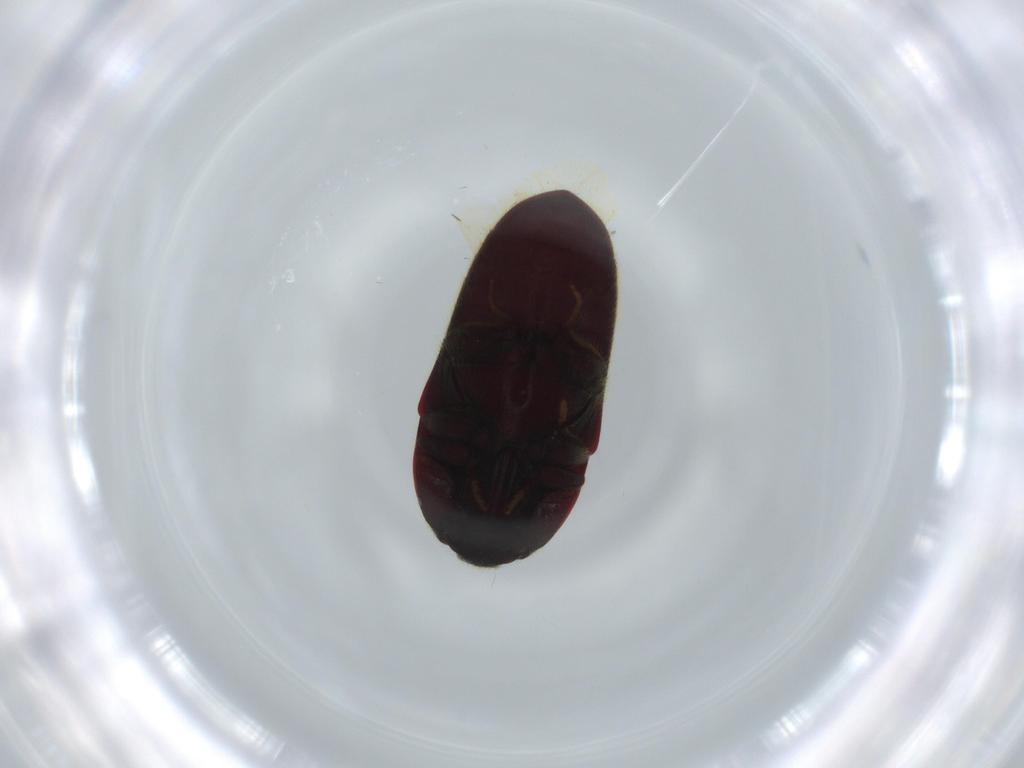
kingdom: Animalia
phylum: Arthropoda
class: Insecta
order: Coleoptera
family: Throscidae
